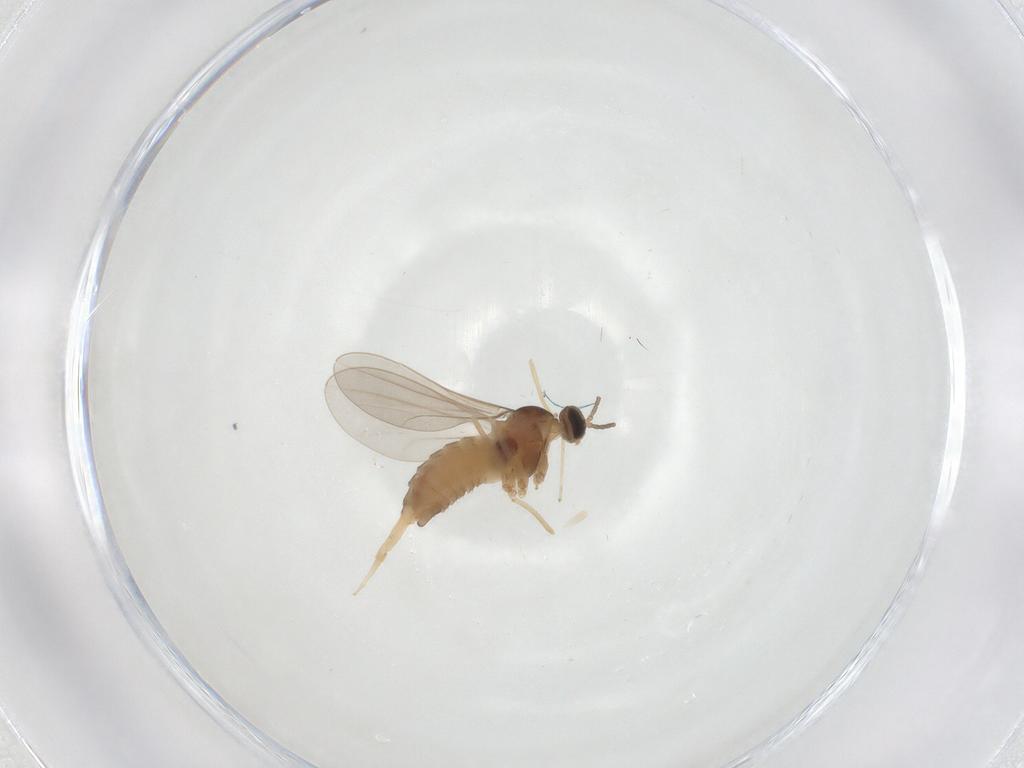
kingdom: Animalia
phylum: Arthropoda
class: Insecta
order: Diptera
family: Cecidomyiidae
